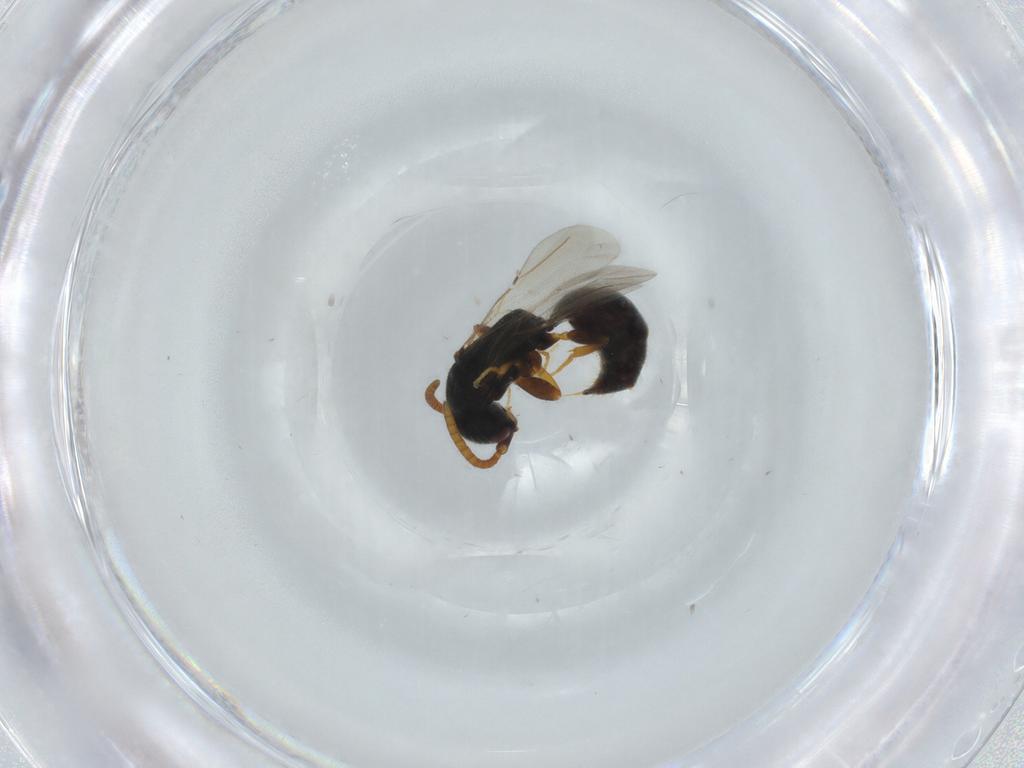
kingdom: Animalia
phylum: Arthropoda
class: Insecta
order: Hymenoptera
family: Bethylidae
